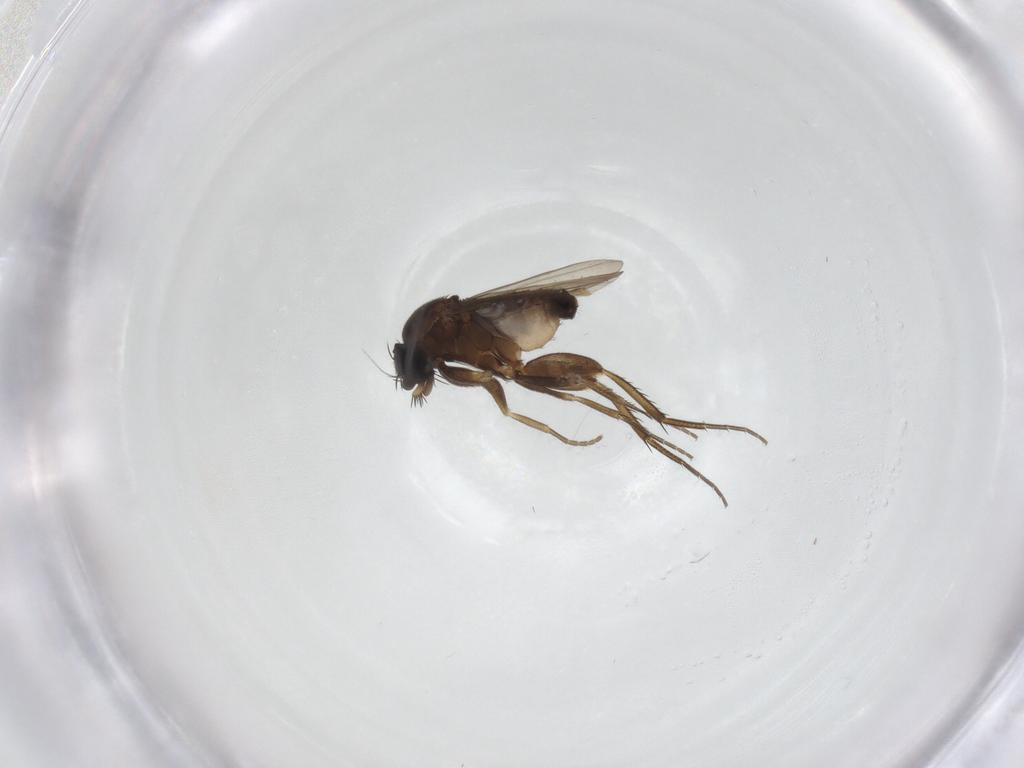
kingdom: Animalia
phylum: Arthropoda
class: Insecta
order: Diptera
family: Phoridae
